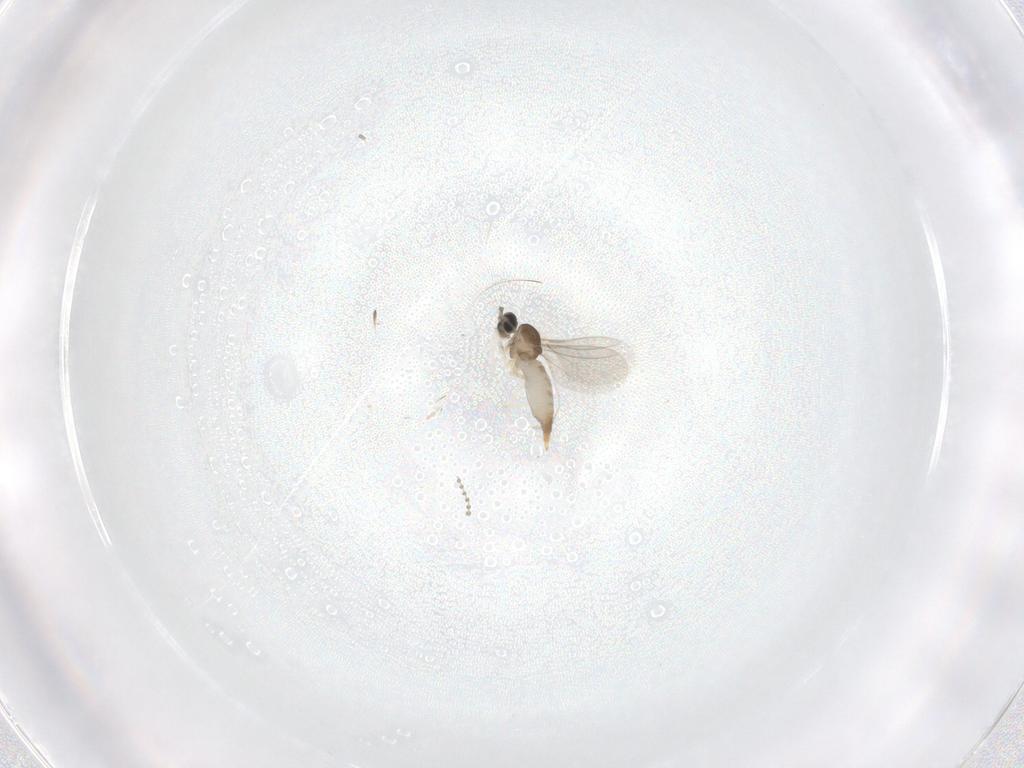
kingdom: Animalia
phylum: Arthropoda
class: Insecta
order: Diptera
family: Cecidomyiidae
